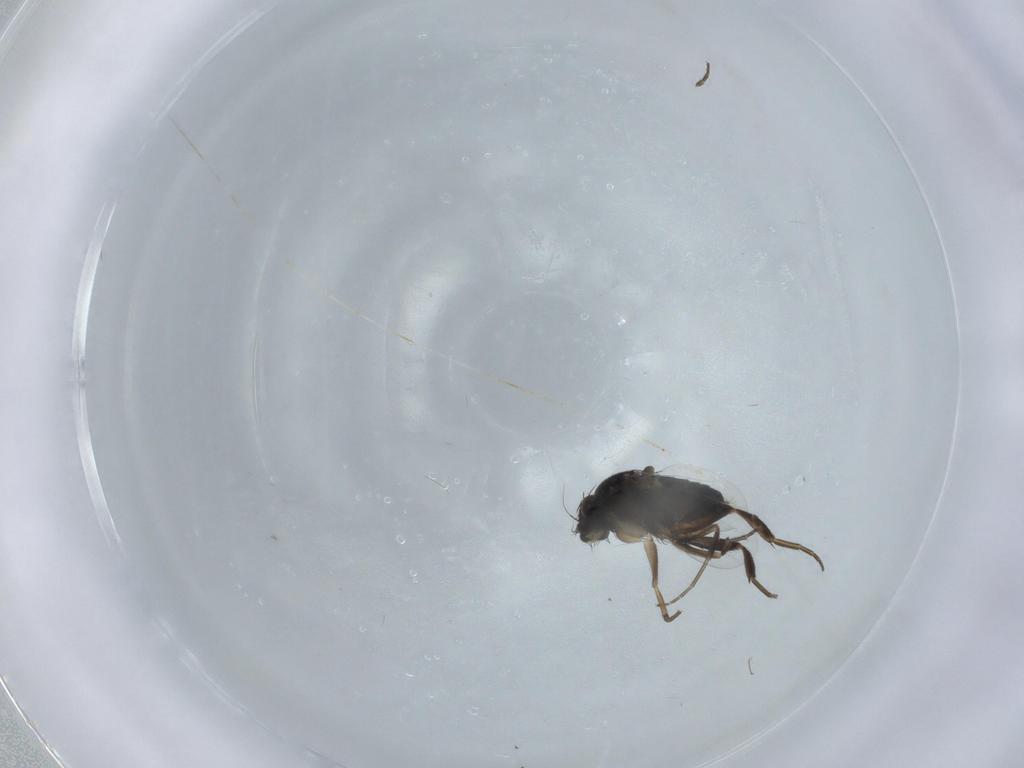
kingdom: Animalia
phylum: Arthropoda
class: Insecta
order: Diptera
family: Phoridae
